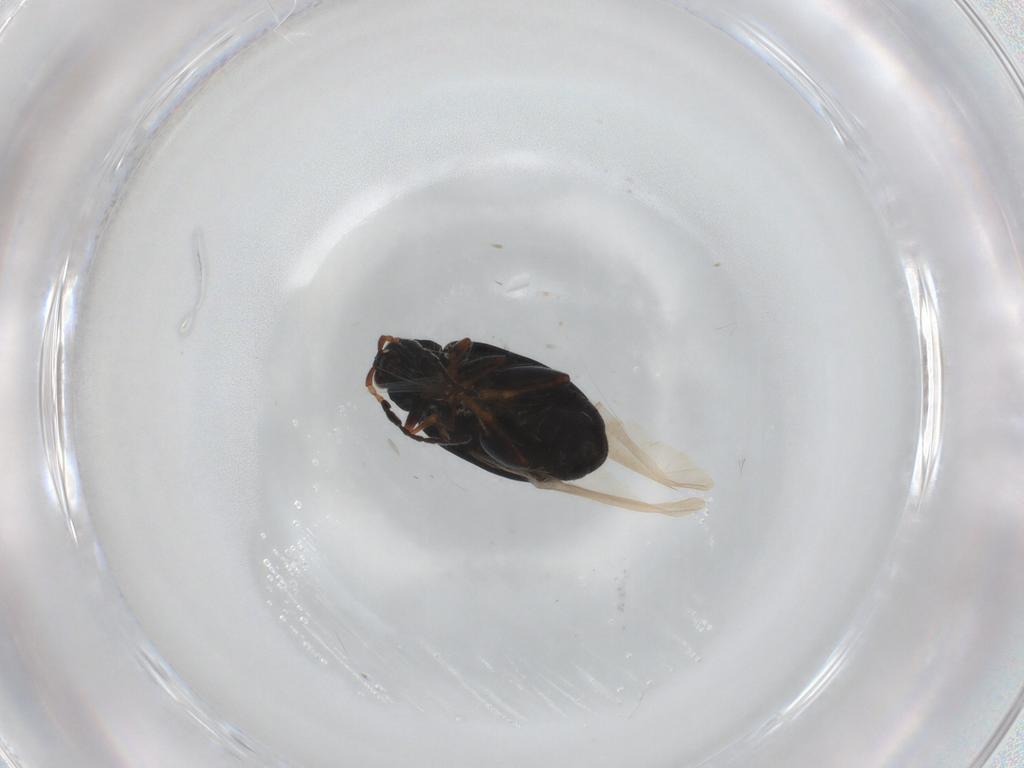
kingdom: Animalia
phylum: Arthropoda
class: Insecta
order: Coleoptera
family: Chrysomelidae
